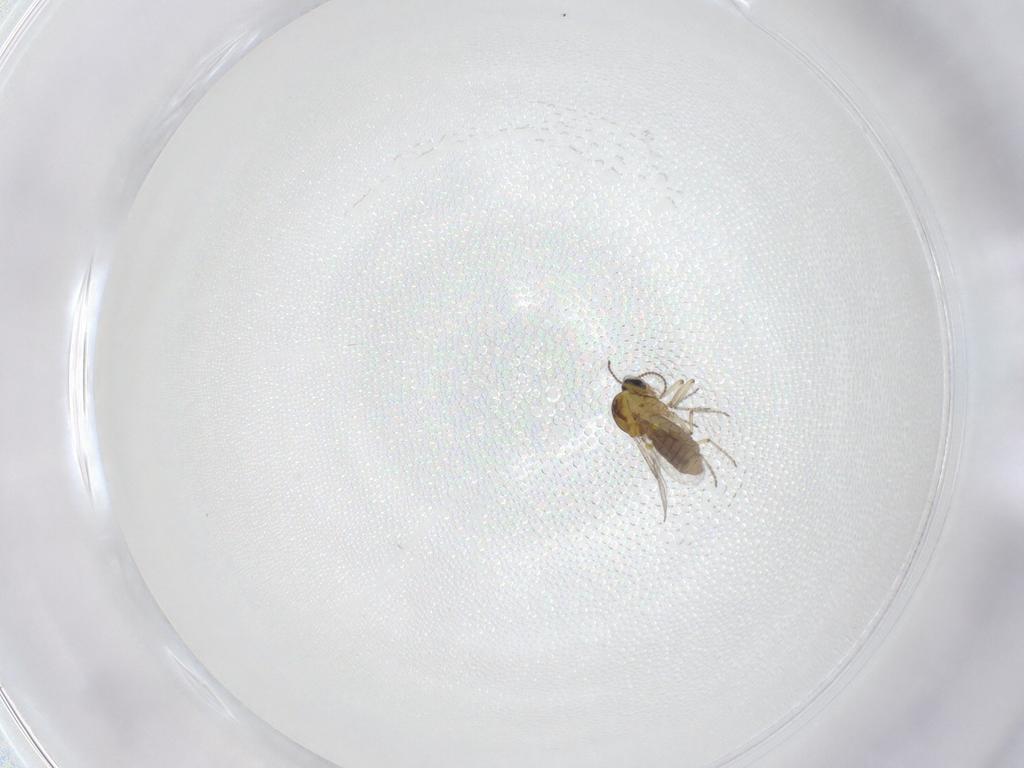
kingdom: Animalia
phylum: Arthropoda
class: Insecta
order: Diptera
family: Ceratopogonidae
